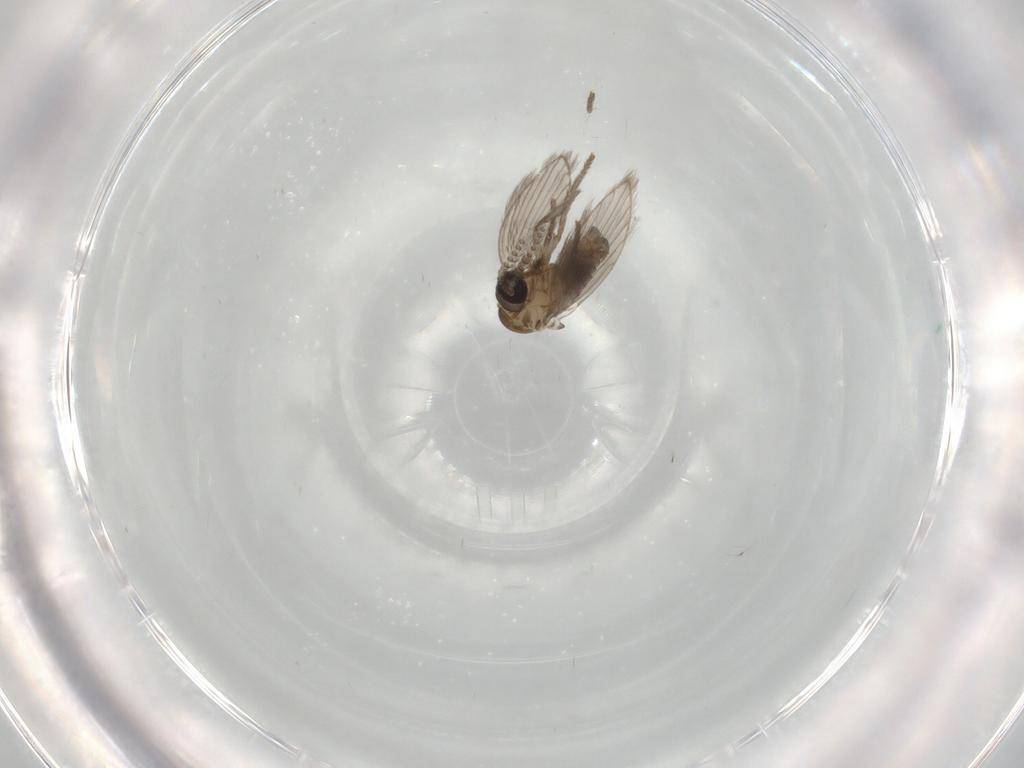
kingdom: Animalia
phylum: Arthropoda
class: Insecta
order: Diptera
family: Psychodidae
